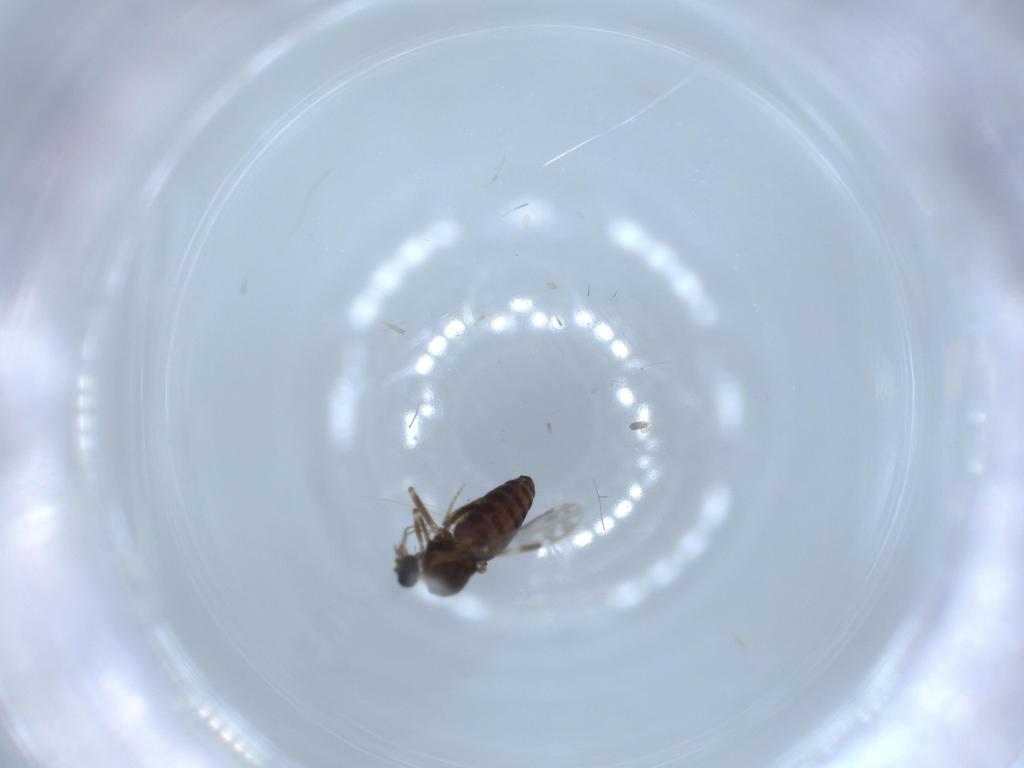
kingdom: Animalia
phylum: Arthropoda
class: Insecta
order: Diptera
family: Ceratopogonidae
